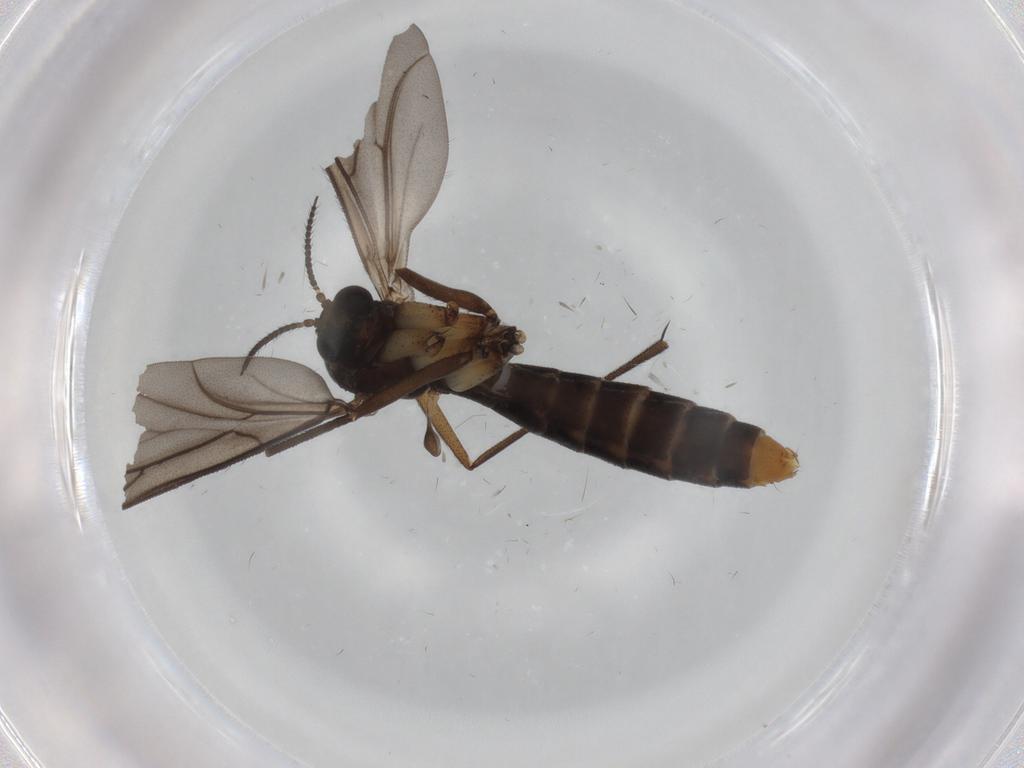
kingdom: Animalia
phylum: Arthropoda
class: Insecta
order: Diptera
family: Ditomyiidae
